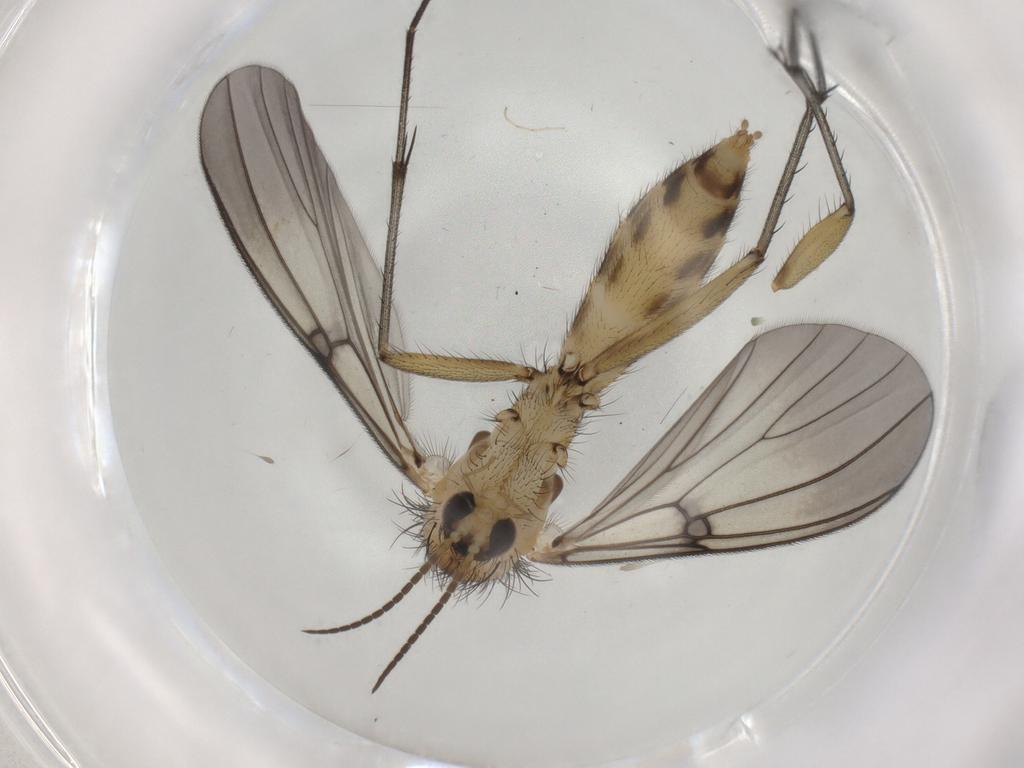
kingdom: Animalia
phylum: Arthropoda
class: Insecta
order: Diptera
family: Mycetophilidae
